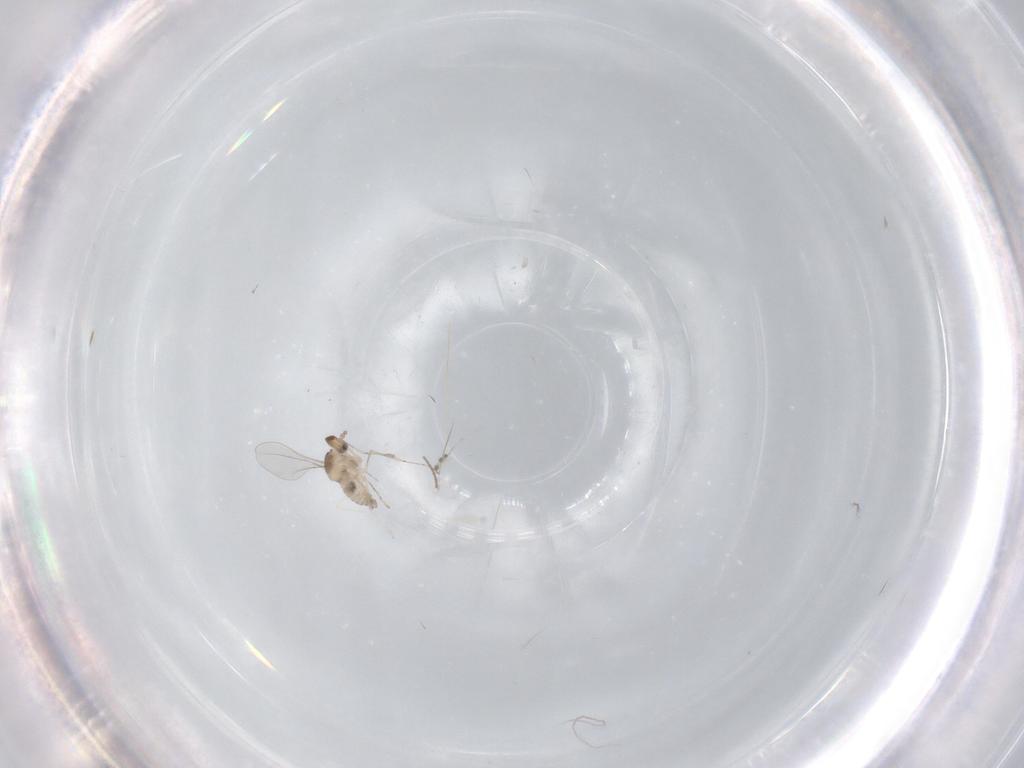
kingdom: Animalia
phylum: Arthropoda
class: Insecta
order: Diptera
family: Cecidomyiidae
